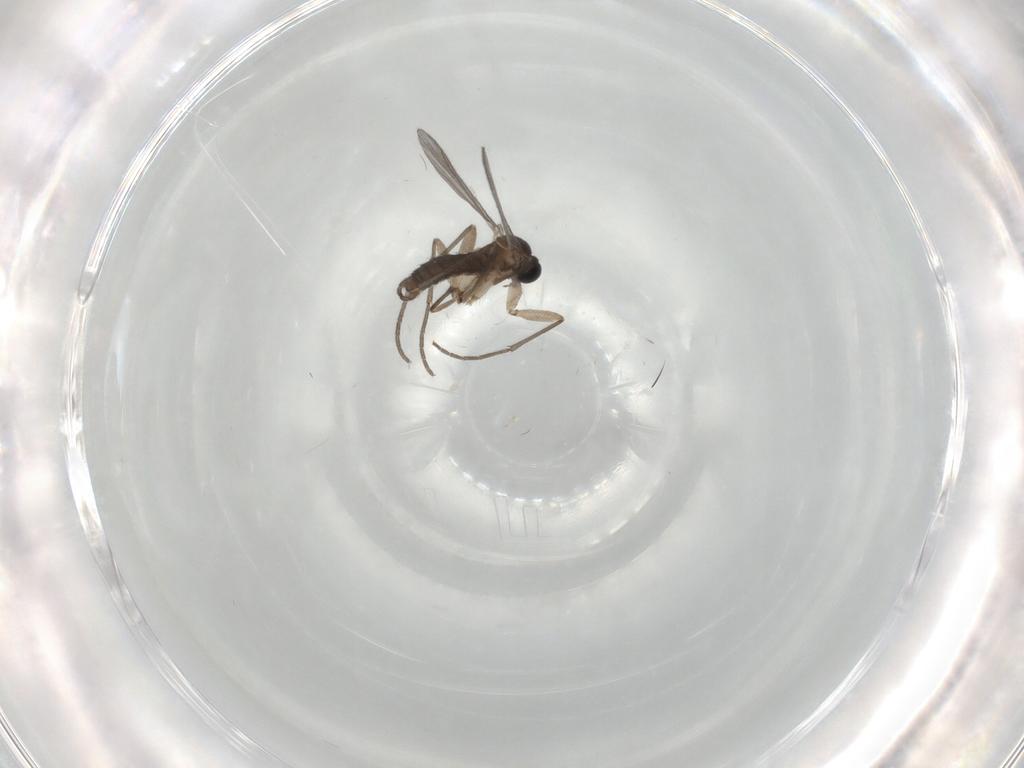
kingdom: Animalia
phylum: Arthropoda
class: Insecta
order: Diptera
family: Sciaridae
